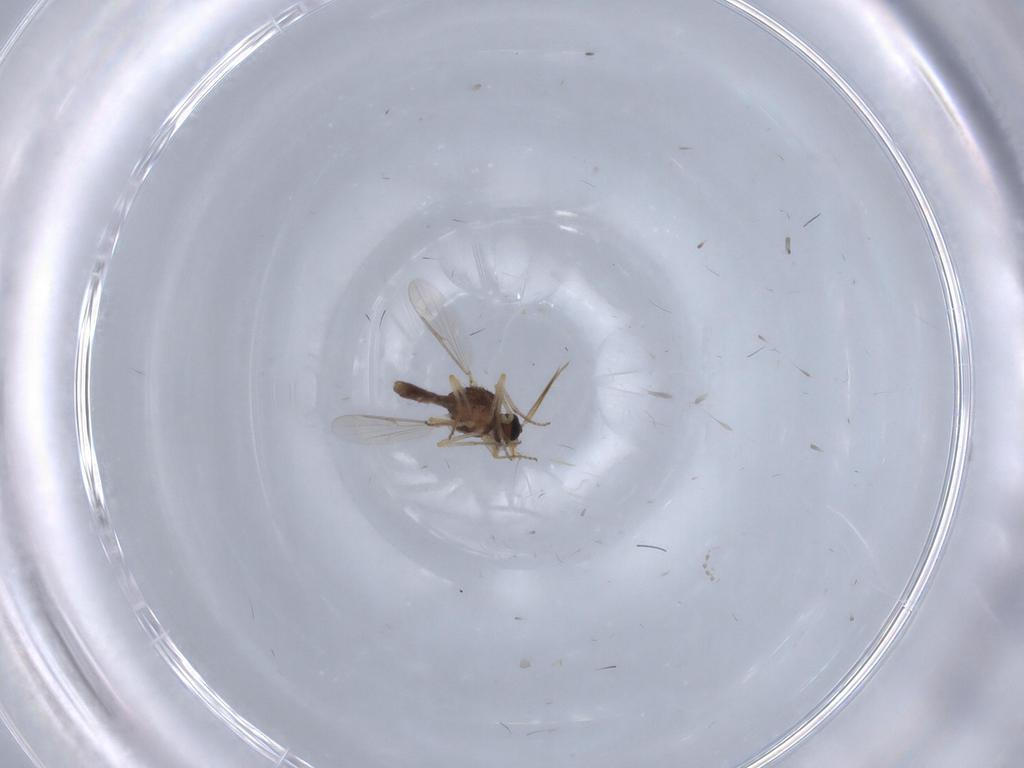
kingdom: Animalia
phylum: Arthropoda
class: Insecta
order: Diptera
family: Ceratopogonidae
